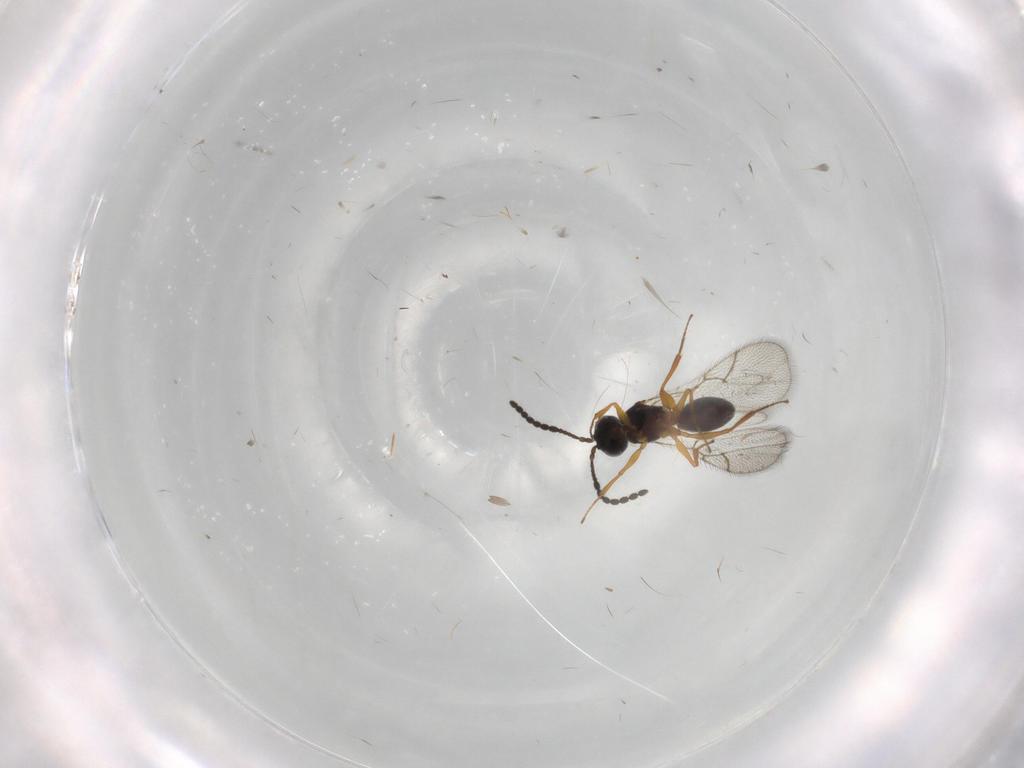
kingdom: Animalia
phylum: Arthropoda
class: Insecta
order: Hymenoptera
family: Figitidae
